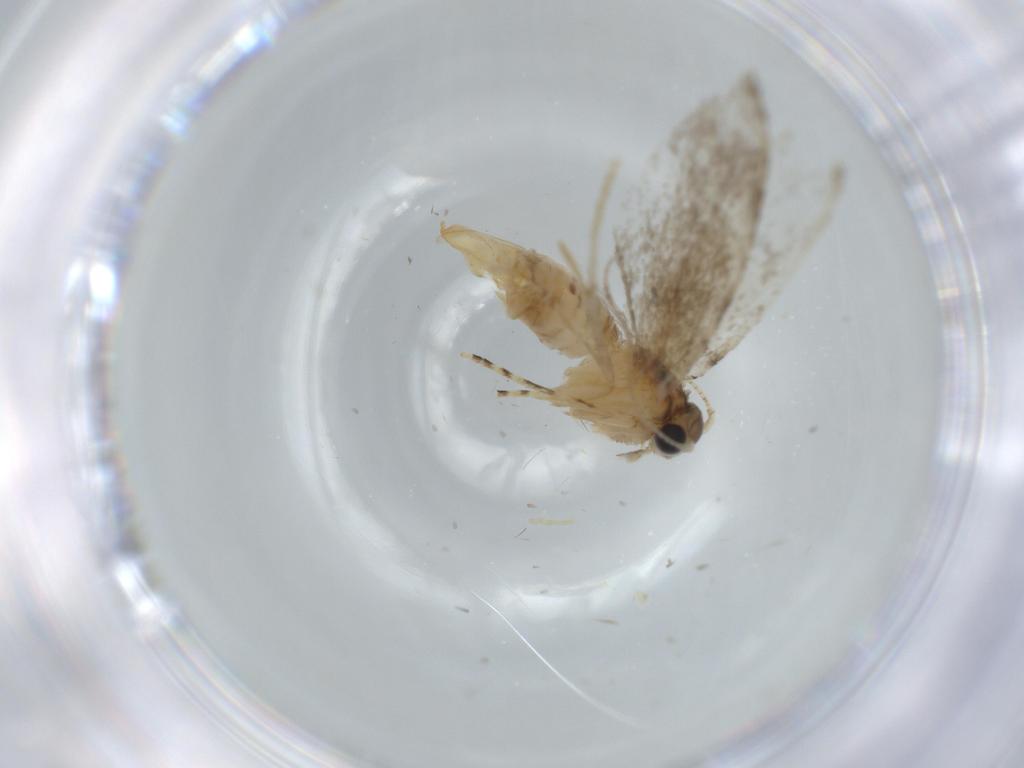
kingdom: Animalia
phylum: Arthropoda
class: Insecta
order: Lepidoptera
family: Tineidae
